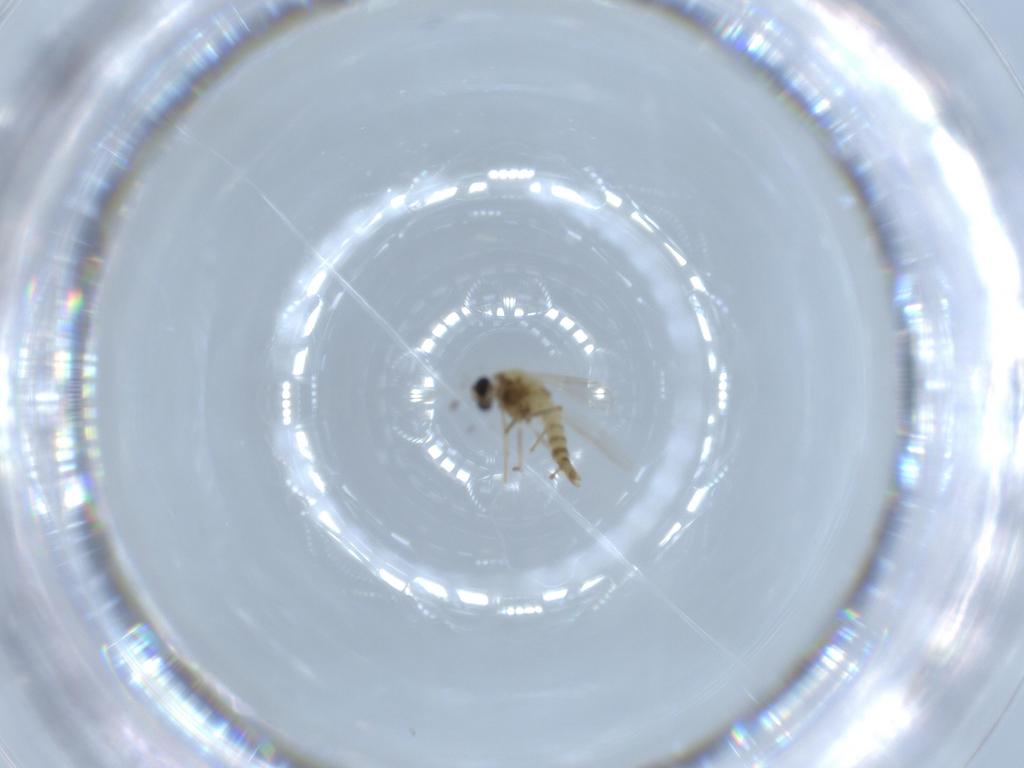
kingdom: Animalia
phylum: Arthropoda
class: Insecta
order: Diptera
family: Chironomidae
